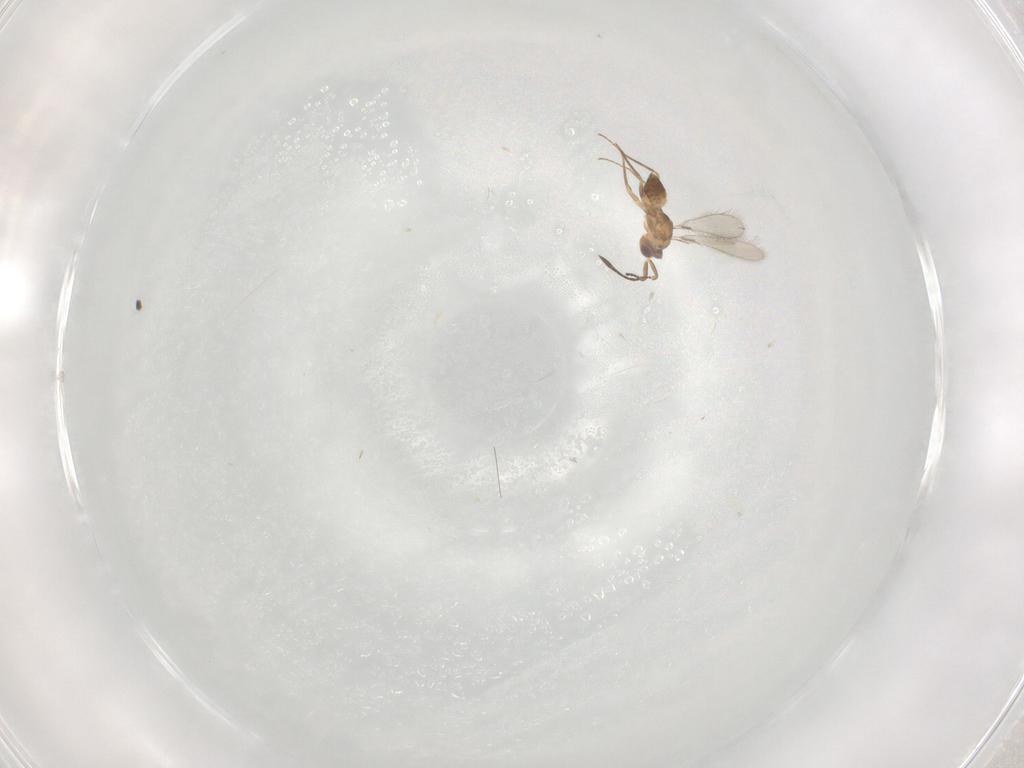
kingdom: Animalia
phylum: Arthropoda
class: Insecta
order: Hymenoptera
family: Mymaridae
